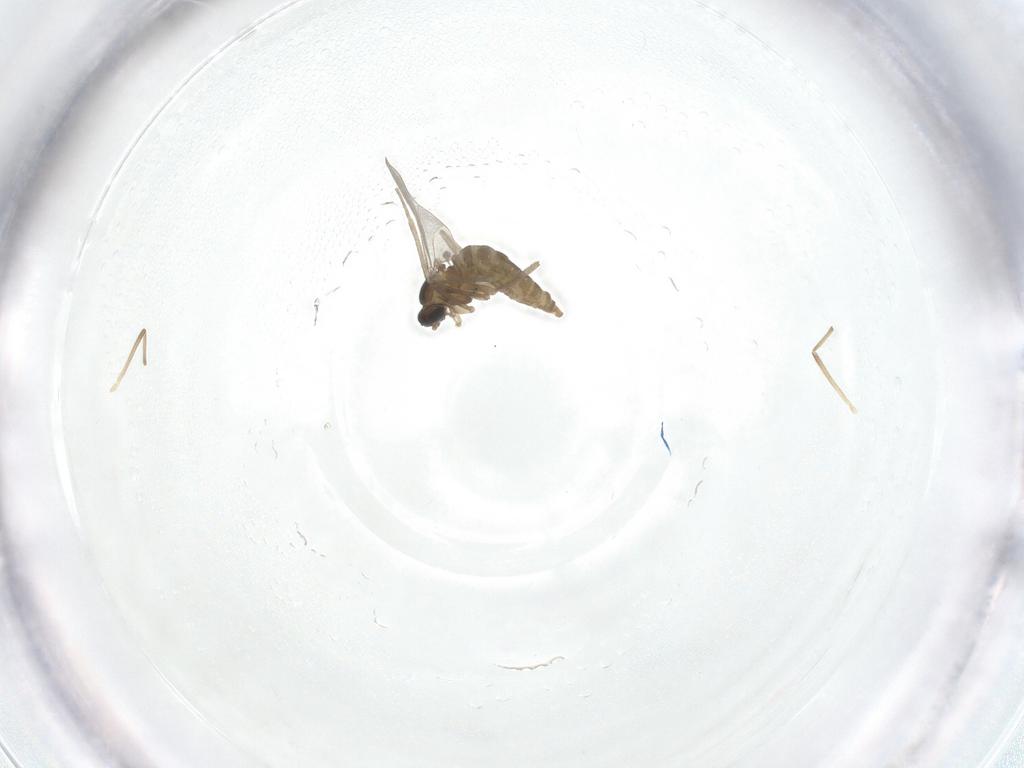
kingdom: Animalia
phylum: Arthropoda
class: Insecta
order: Diptera
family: Cecidomyiidae
